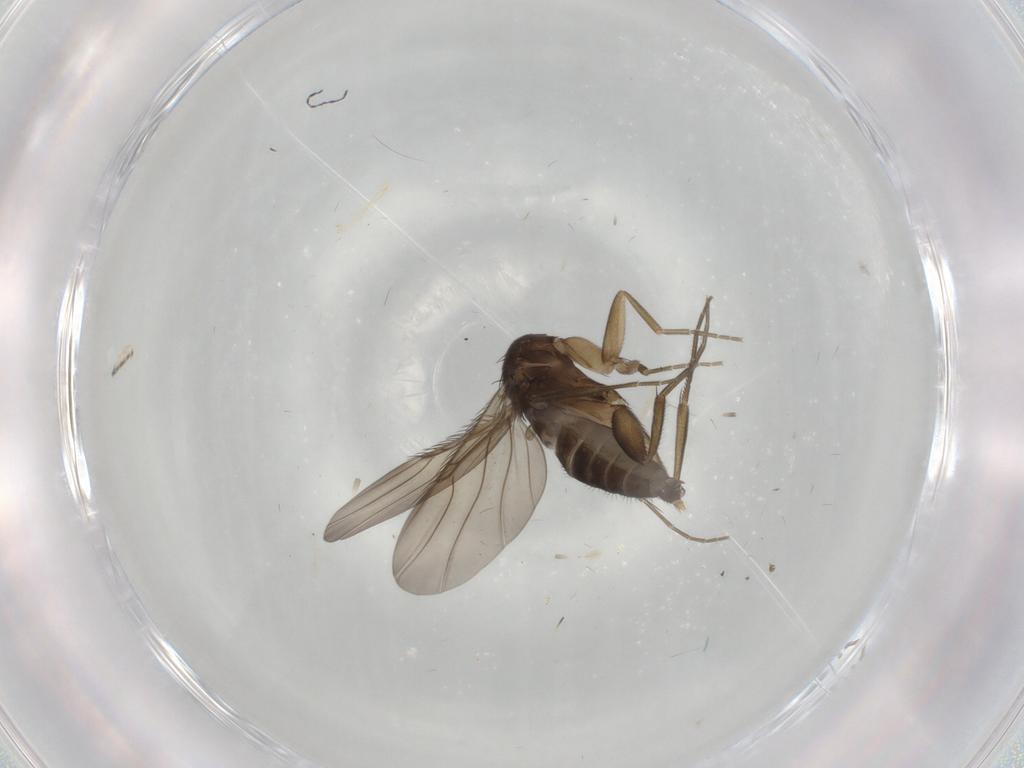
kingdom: Animalia
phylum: Arthropoda
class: Insecta
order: Diptera
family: Phoridae
